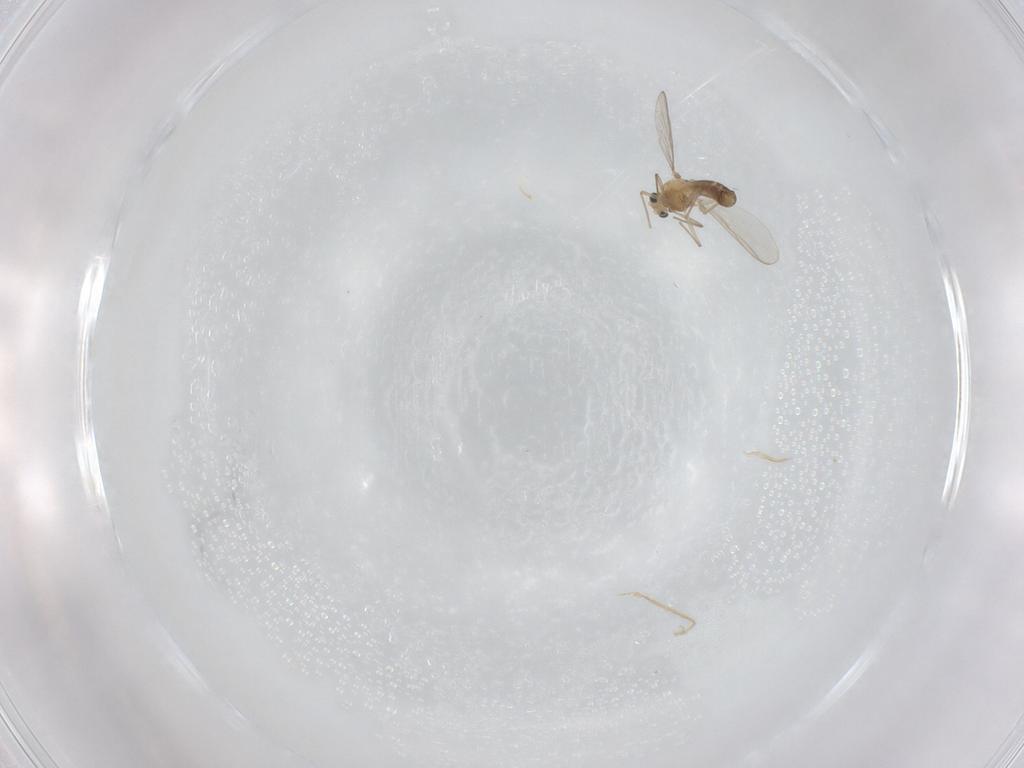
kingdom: Animalia
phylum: Arthropoda
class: Insecta
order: Diptera
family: Chironomidae
